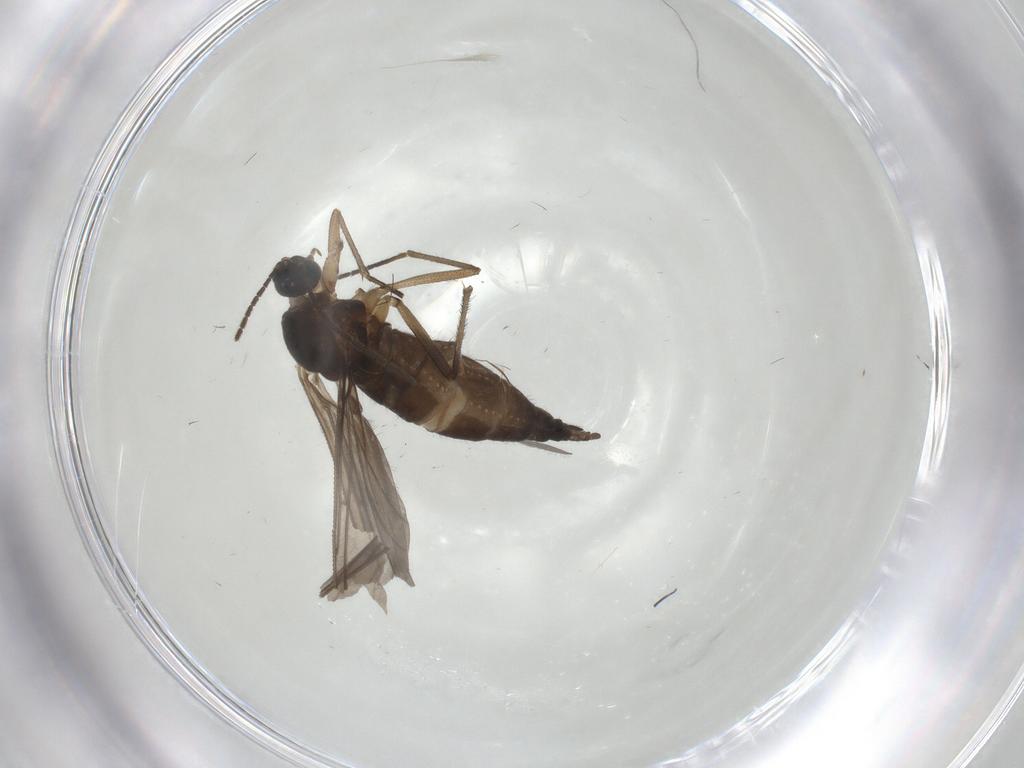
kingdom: Animalia
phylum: Arthropoda
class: Insecta
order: Diptera
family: Sciaridae
